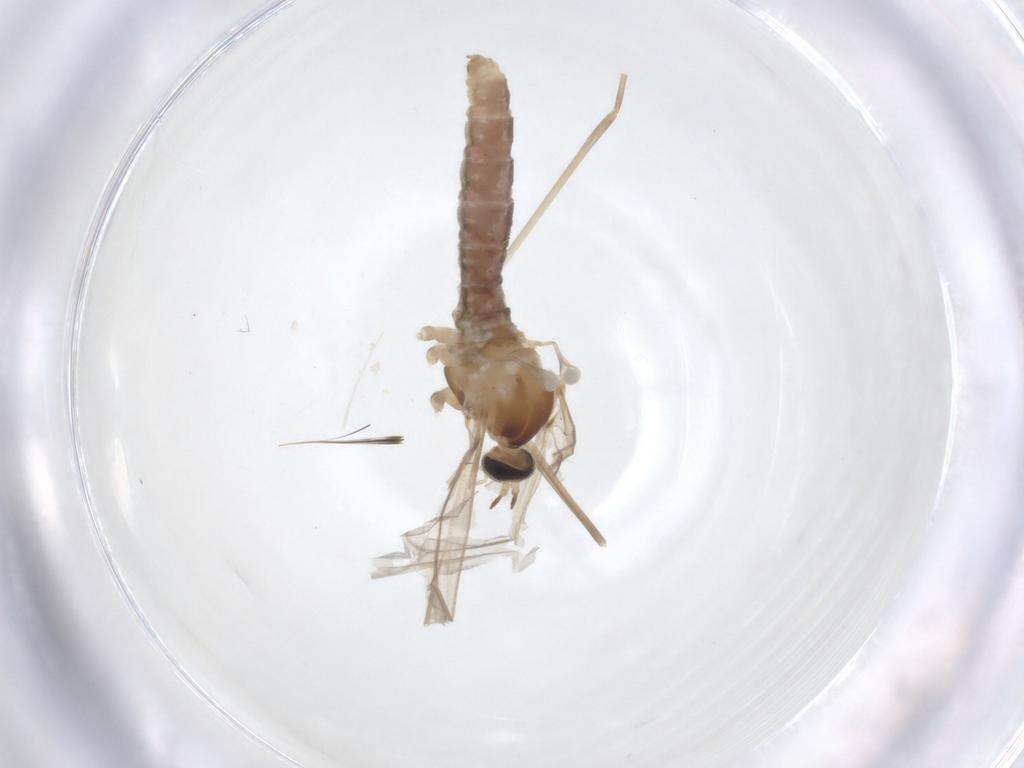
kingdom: Animalia
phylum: Arthropoda
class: Insecta
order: Diptera
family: Cecidomyiidae
